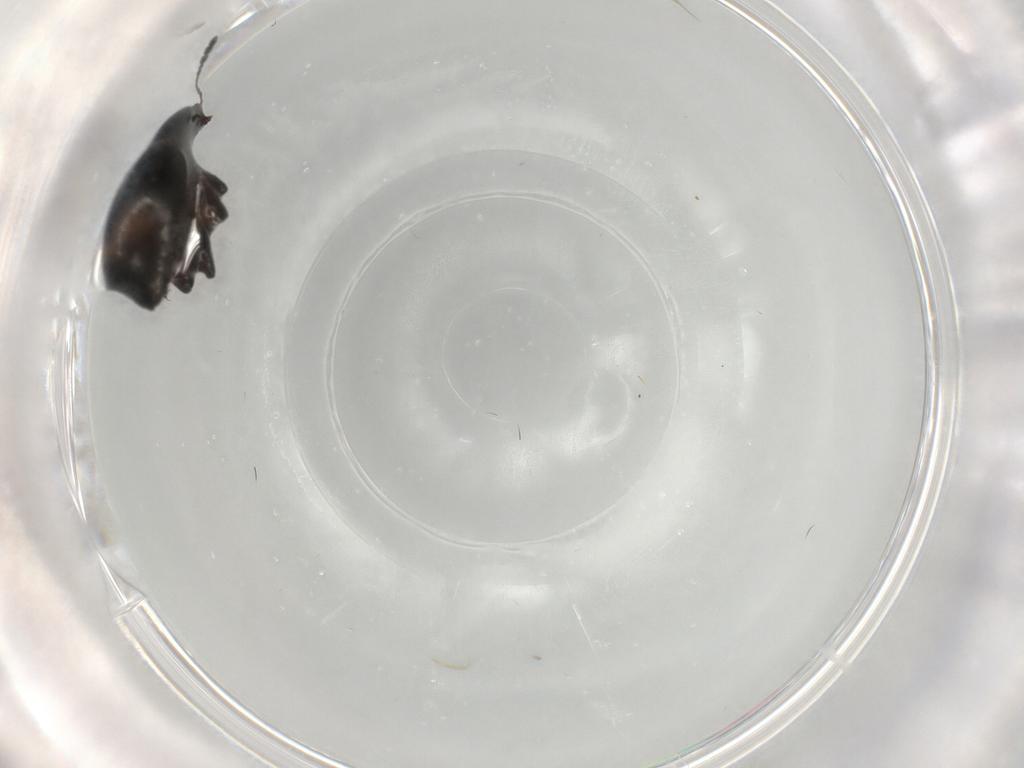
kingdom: Animalia
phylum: Arthropoda
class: Insecta
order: Coleoptera
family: Erotylidae
